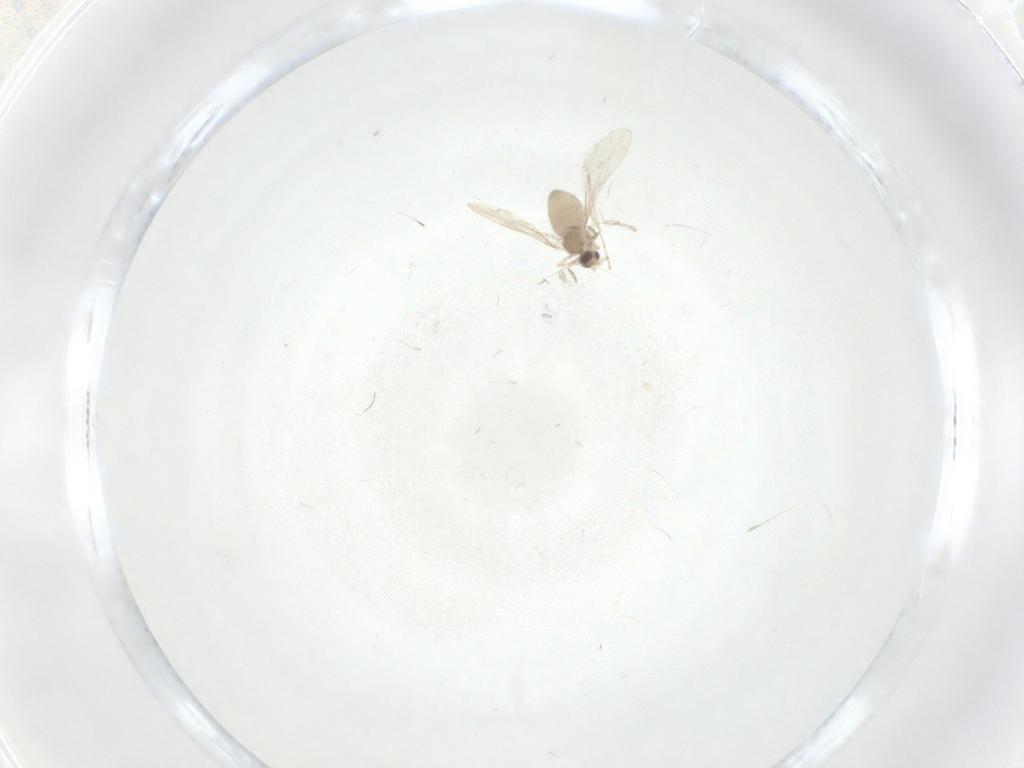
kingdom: Animalia
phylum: Arthropoda
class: Insecta
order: Diptera
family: Cecidomyiidae
